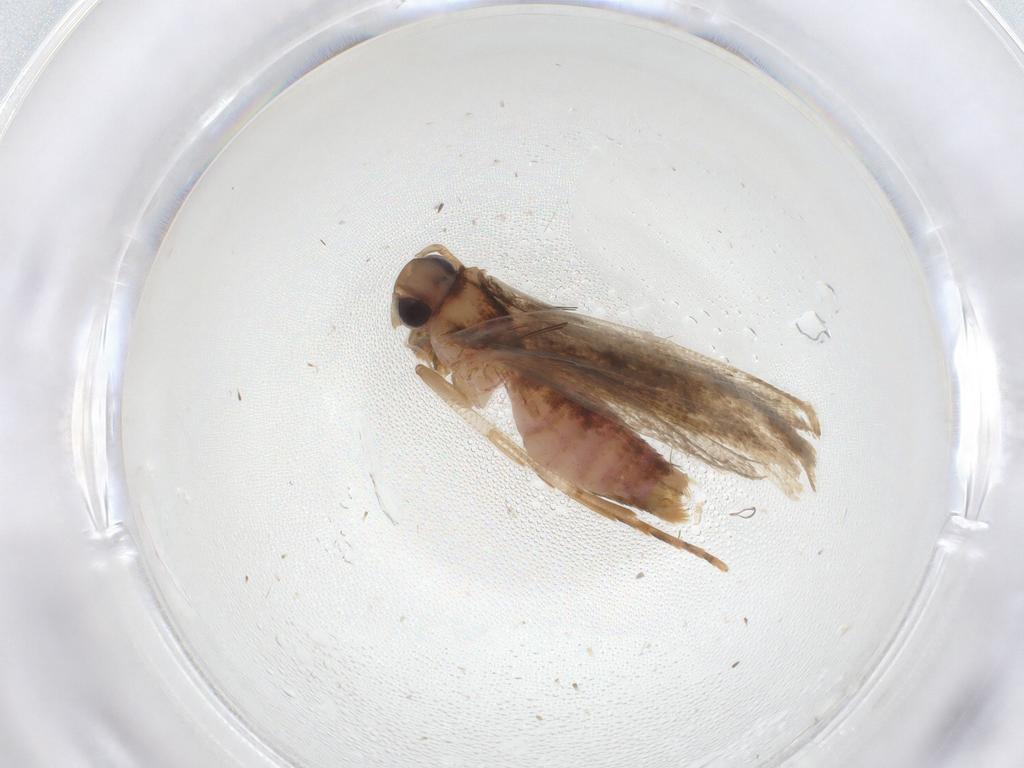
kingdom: Animalia
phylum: Arthropoda
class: Insecta
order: Lepidoptera
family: Gelechiidae
